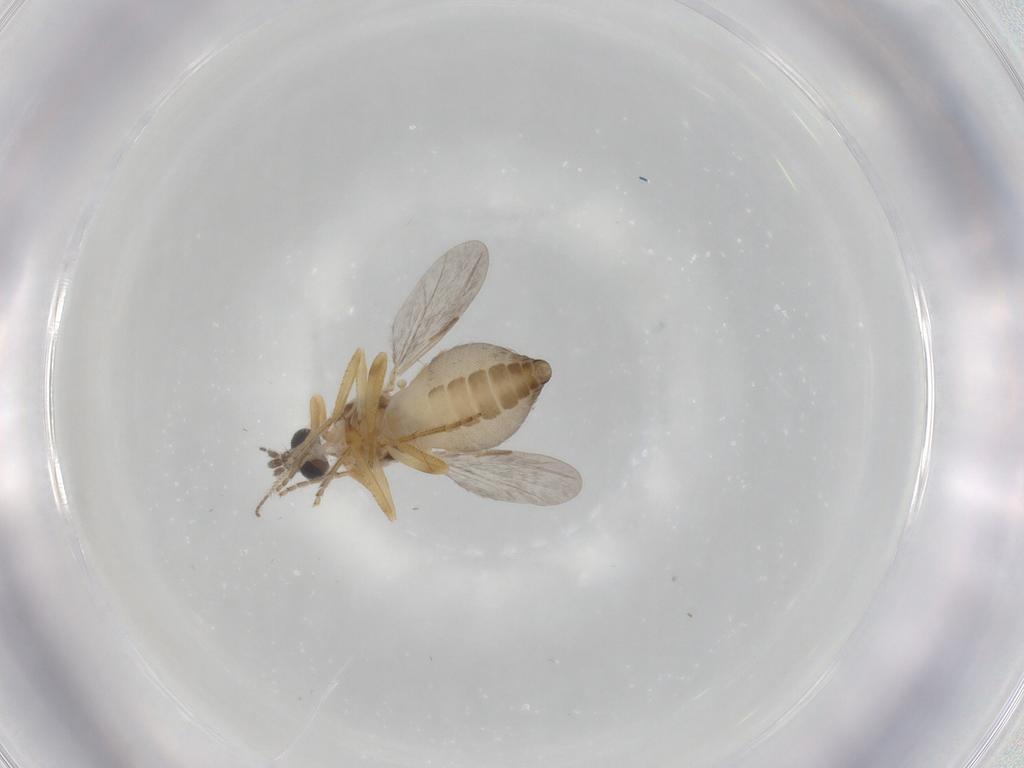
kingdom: Animalia
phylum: Arthropoda
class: Insecta
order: Diptera
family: Ceratopogonidae
